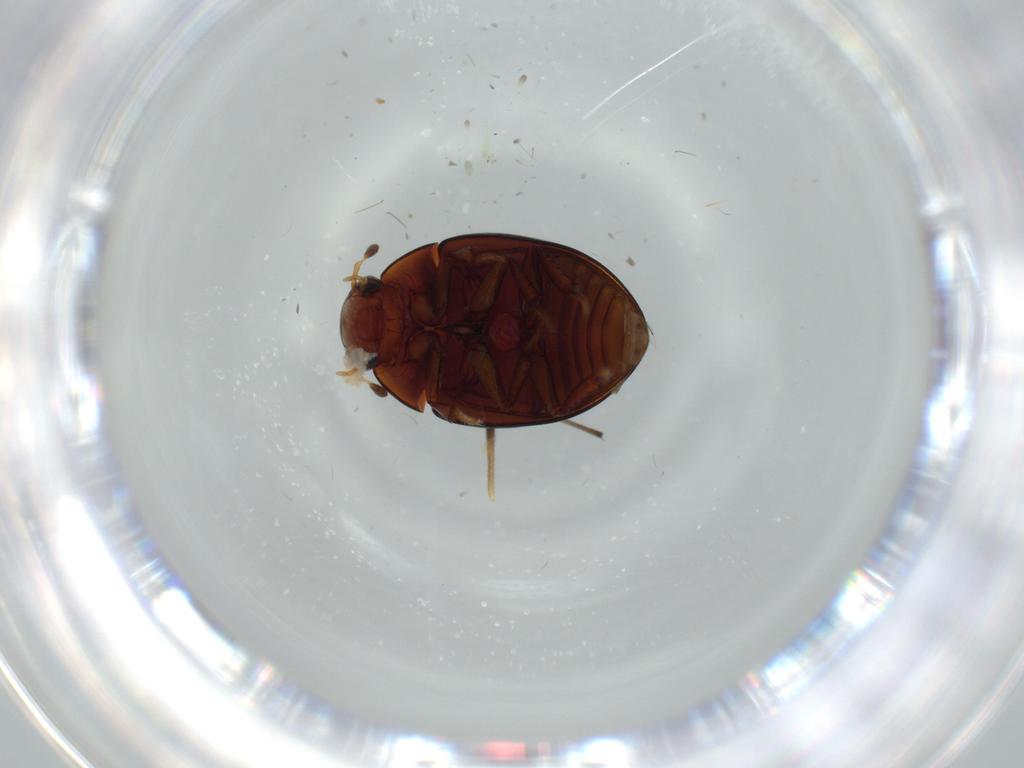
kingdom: Animalia
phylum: Arthropoda
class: Insecta
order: Coleoptera
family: Hydrophilidae
